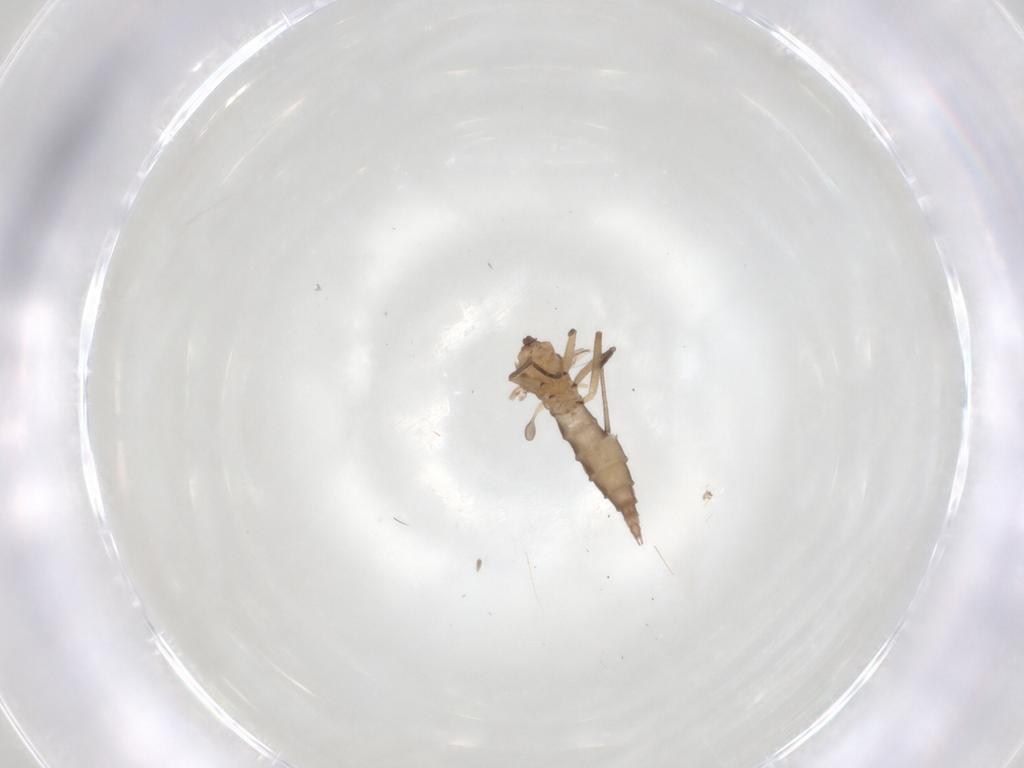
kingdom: Animalia
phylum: Arthropoda
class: Insecta
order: Diptera
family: Sciaridae
